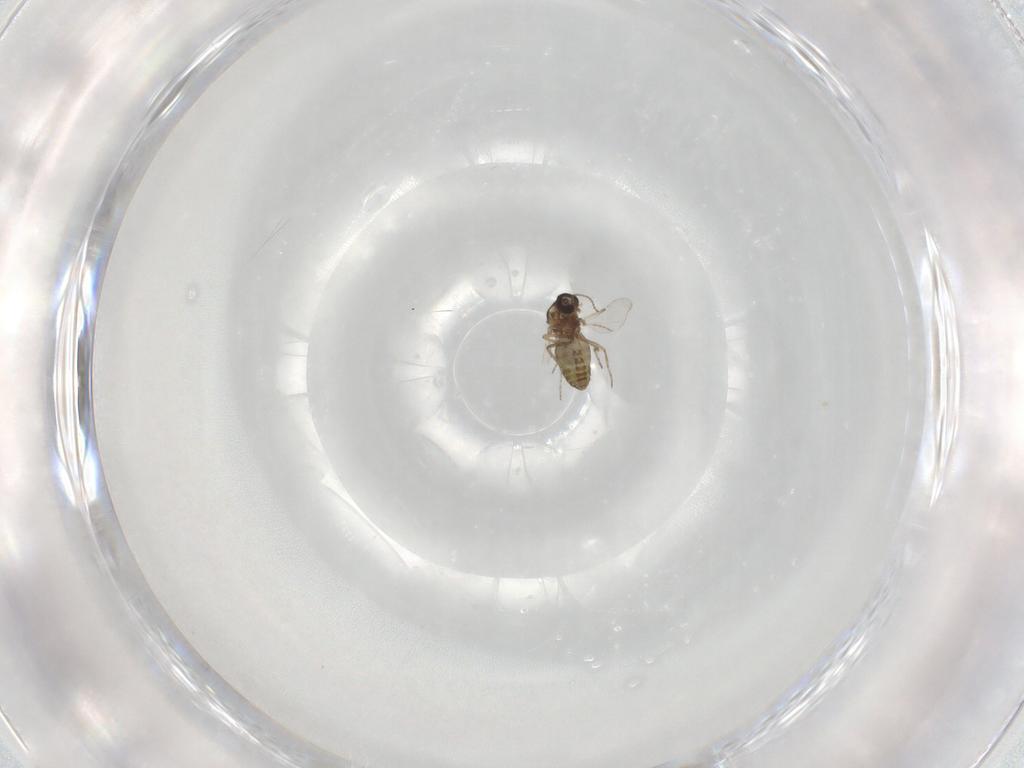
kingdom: Animalia
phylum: Arthropoda
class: Insecta
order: Diptera
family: Ceratopogonidae
